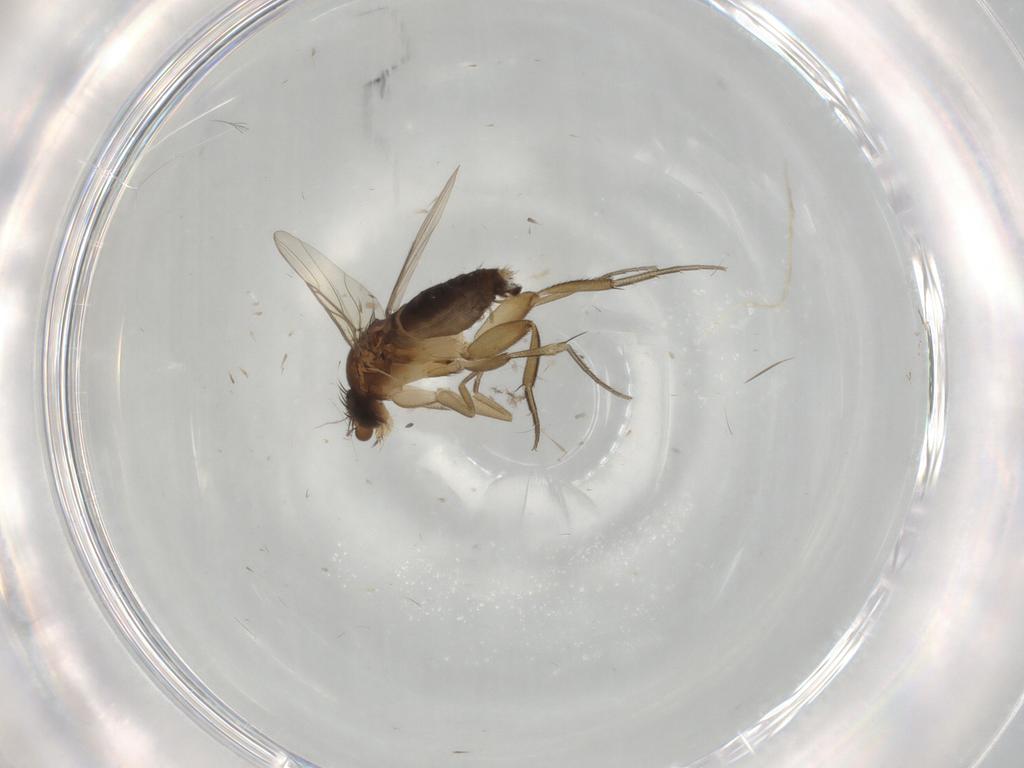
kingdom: Animalia
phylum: Arthropoda
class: Insecta
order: Diptera
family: Phoridae
